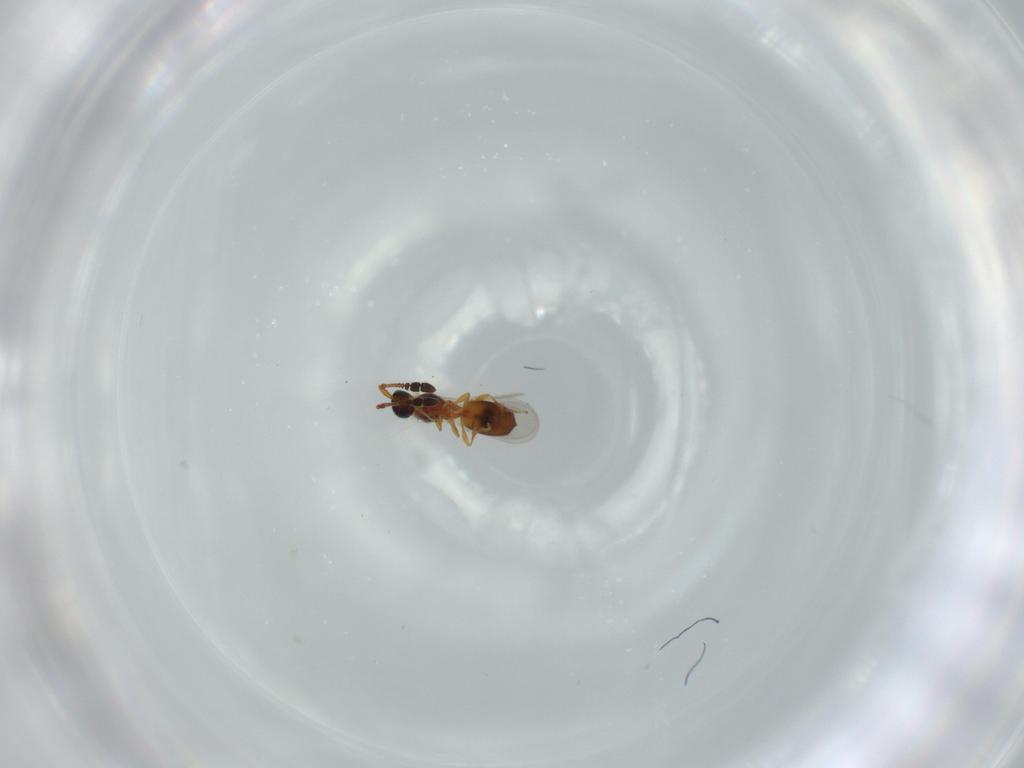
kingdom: Animalia
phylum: Arthropoda
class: Insecta
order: Hymenoptera
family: Diapriidae
